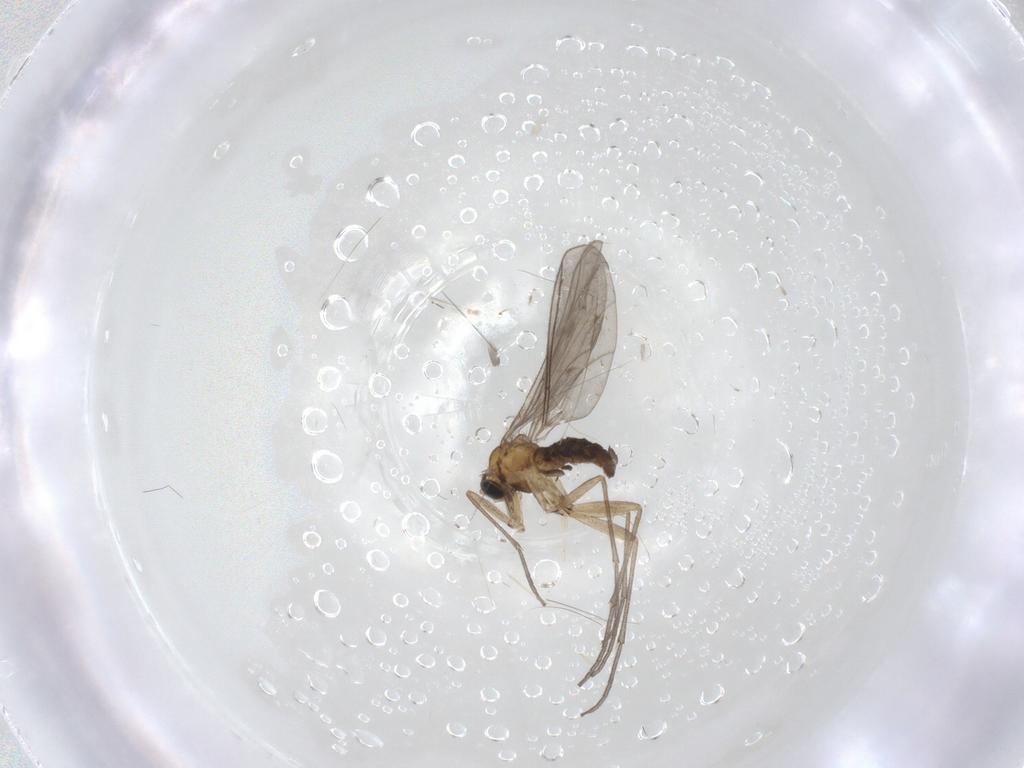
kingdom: Animalia
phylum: Arthropoda
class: Insecta
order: Diptera
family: Sciaridae
